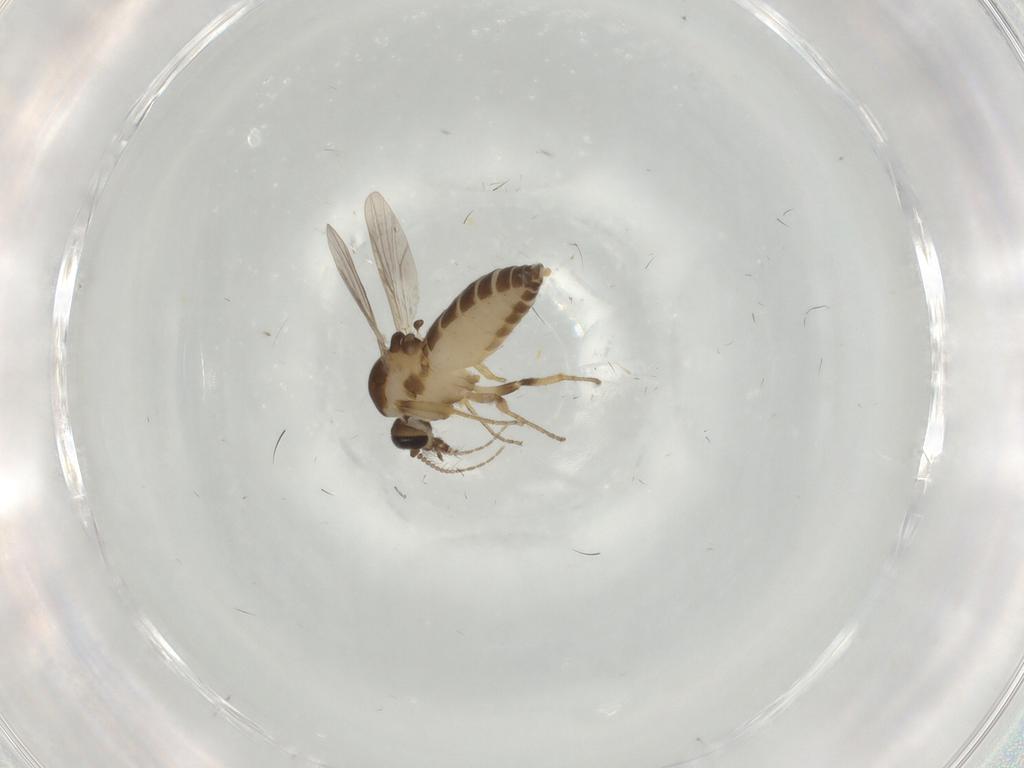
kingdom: Animalia
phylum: Arthropoda
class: Insecta
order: Diptera
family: Ceratopogonidae
